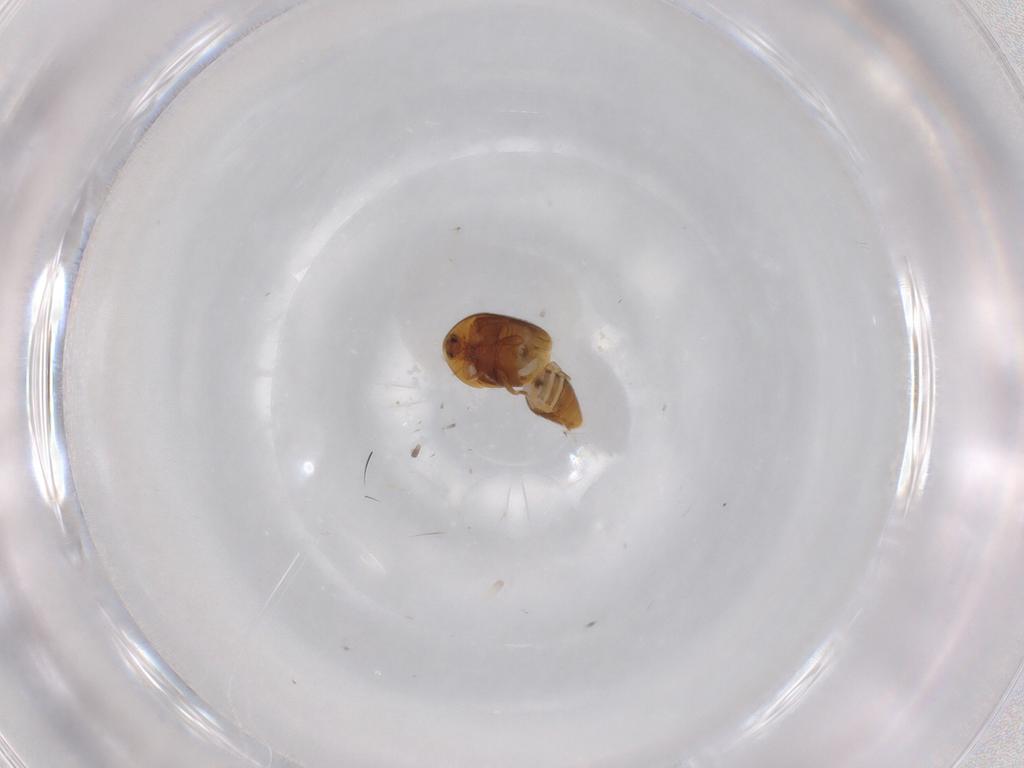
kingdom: Animalia
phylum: Arthropoda
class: Insecta
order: Coleoptera
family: Corylophidae
